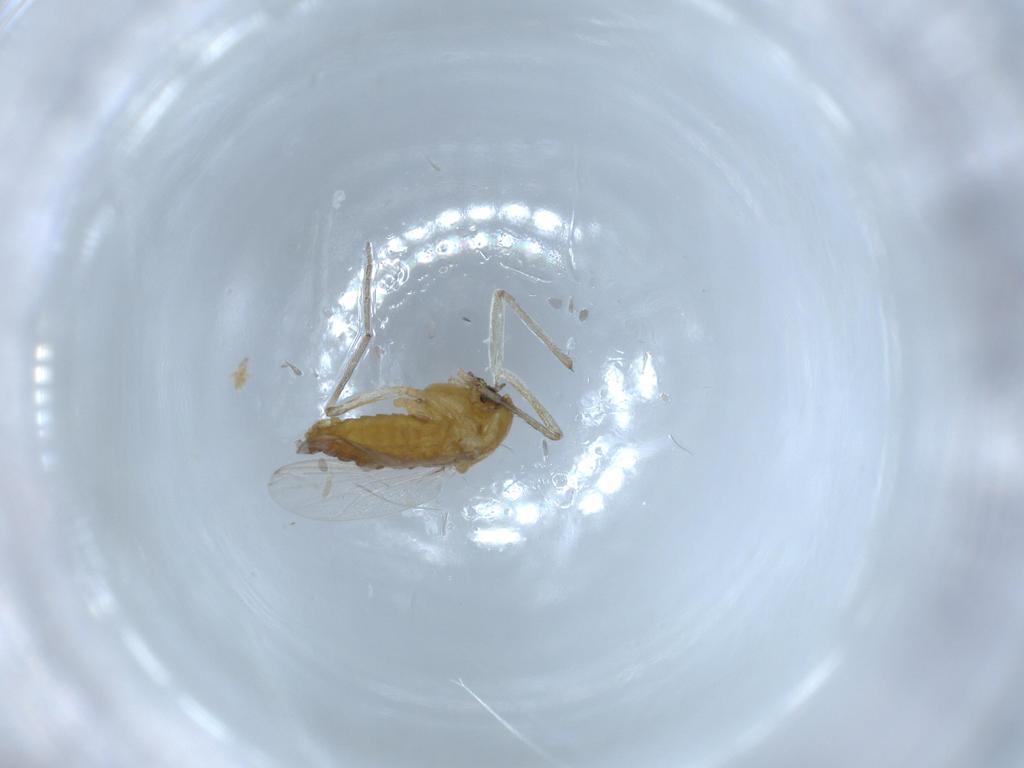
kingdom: Animalia
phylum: Arthropoda
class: Insecta
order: Diptera
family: Chironomidae
